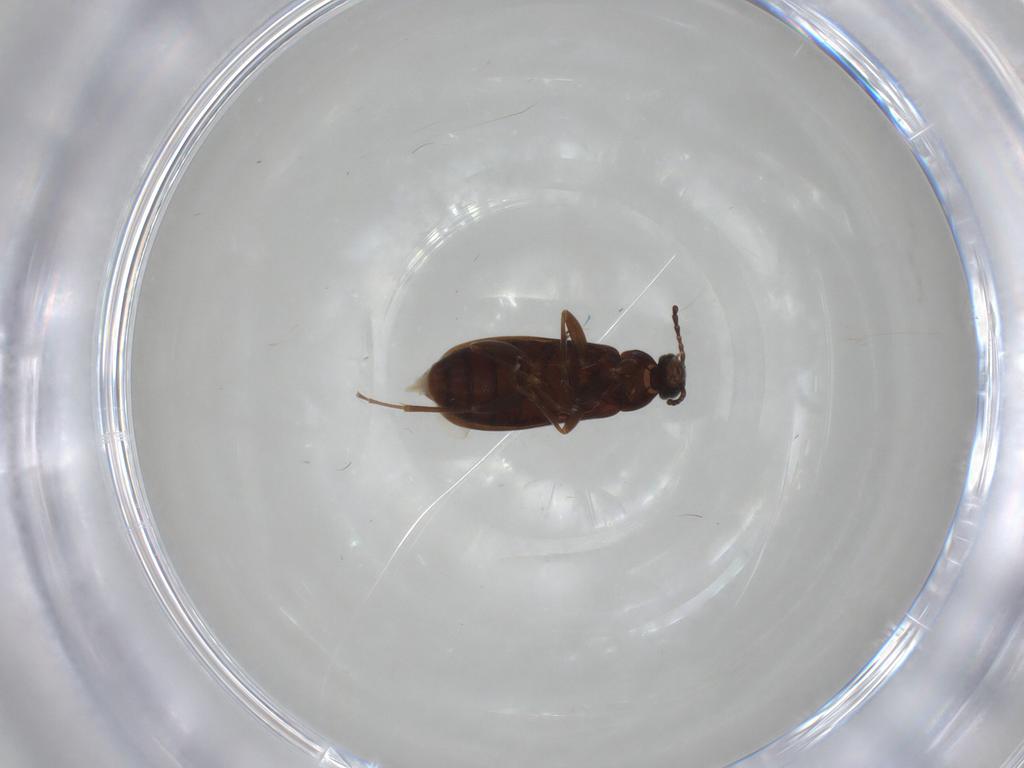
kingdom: Animalia
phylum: Arthropoda
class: Insecta
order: Coleoptera
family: Scraptiidae
